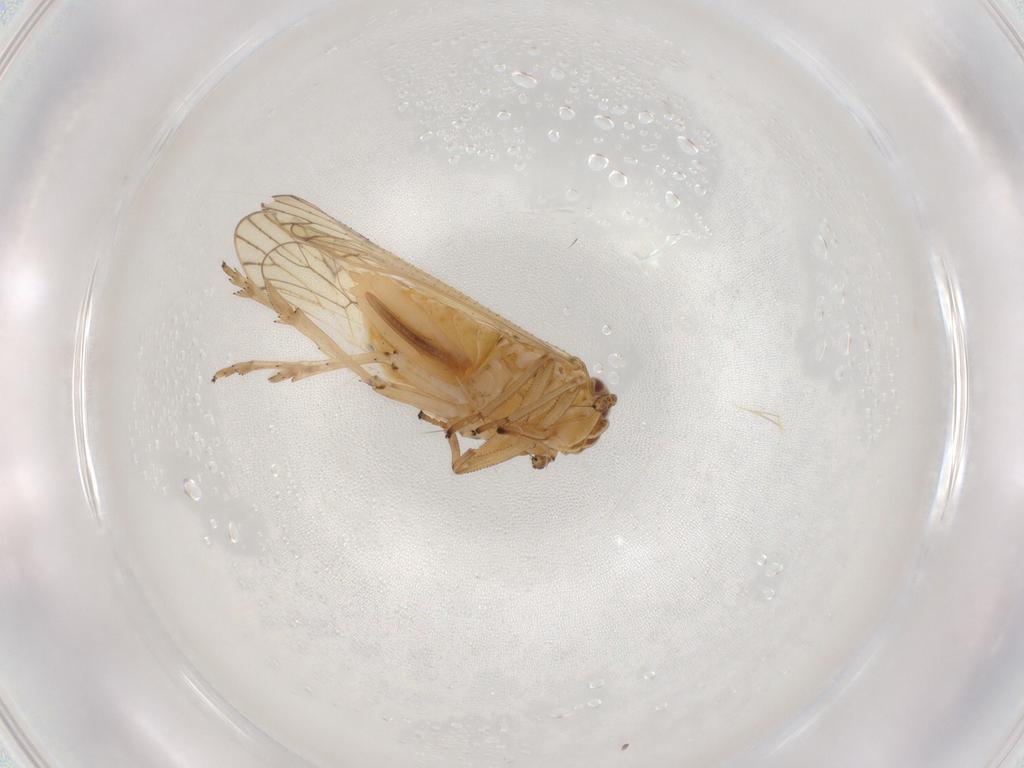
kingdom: Animalia
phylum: Arthropoda
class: Insecta
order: Hemiptera
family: Delphacidae
